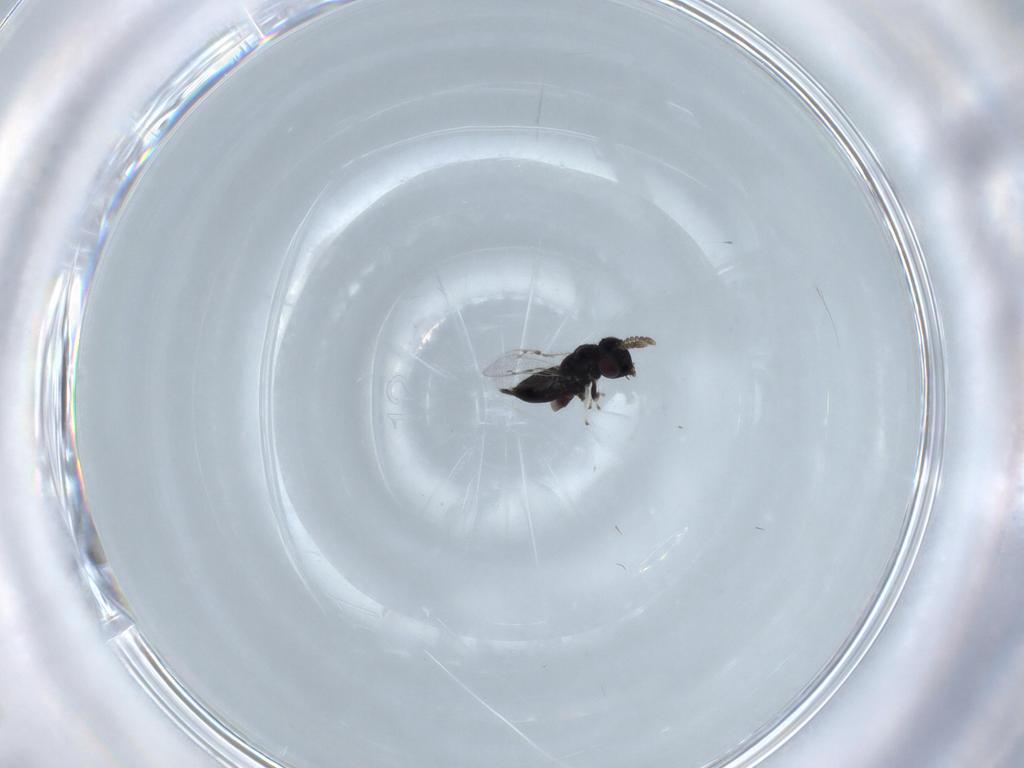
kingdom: Animalia
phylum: Arthropoda
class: Insecta
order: Hymenoptera
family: Pirenidae
